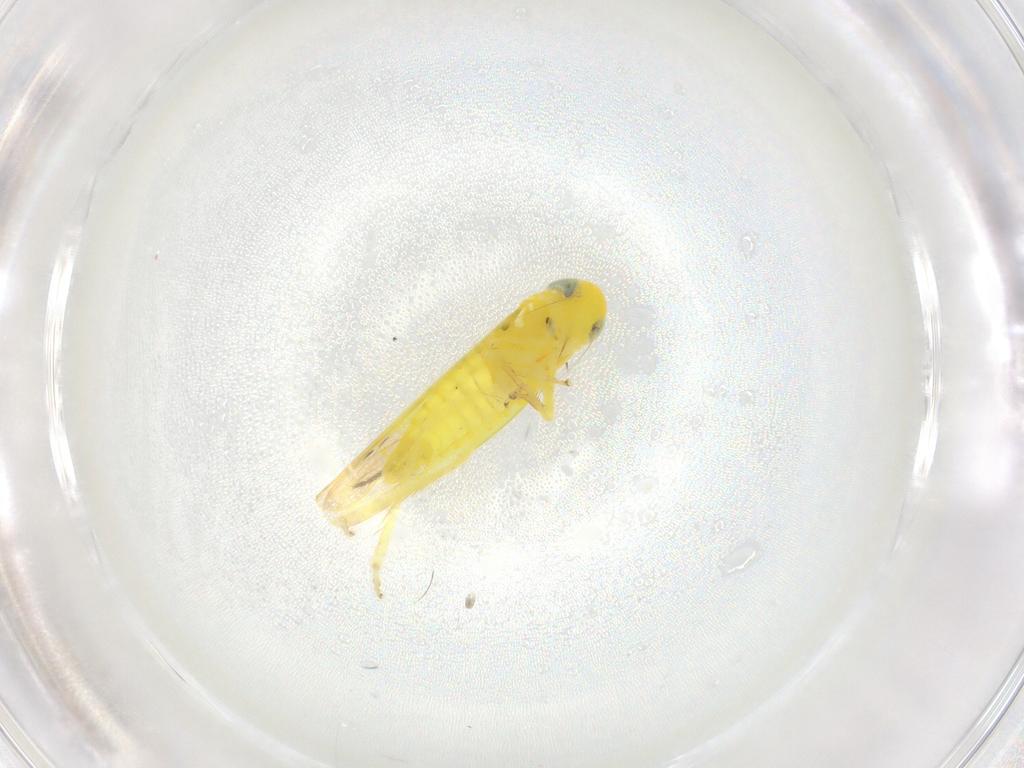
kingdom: Animalia
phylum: Arthropoda
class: Insecta
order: Hemiptera
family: Cicadellidae
